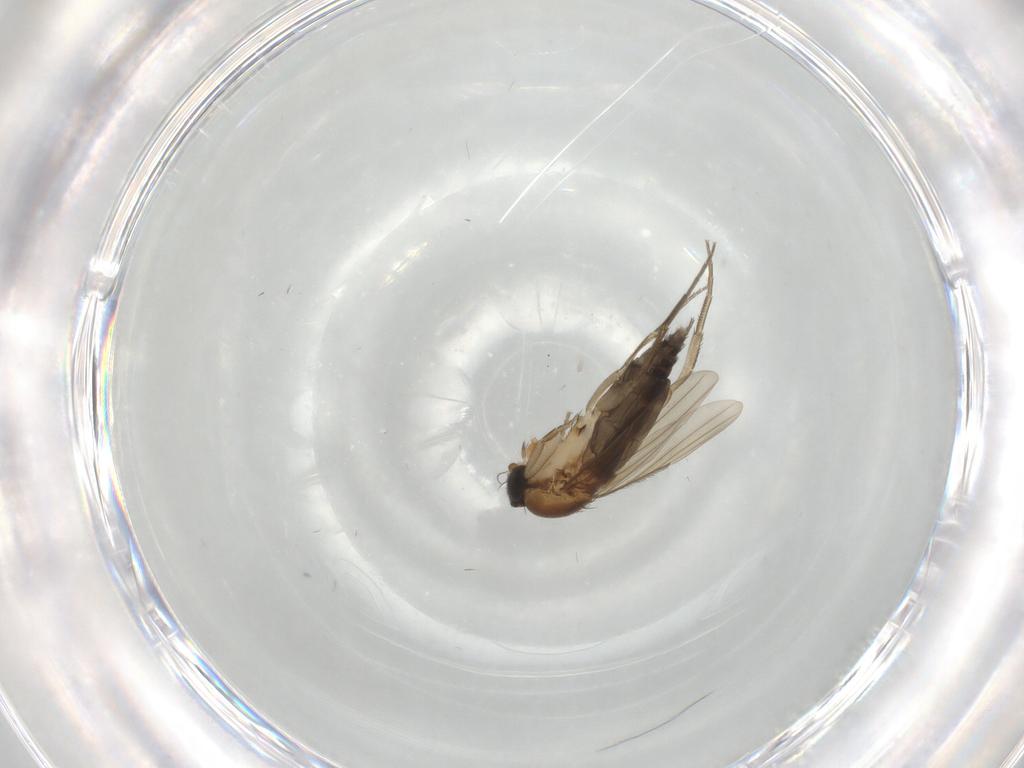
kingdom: Animalia
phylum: Arthropoda
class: Insecta
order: Diptera
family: Phoridae
